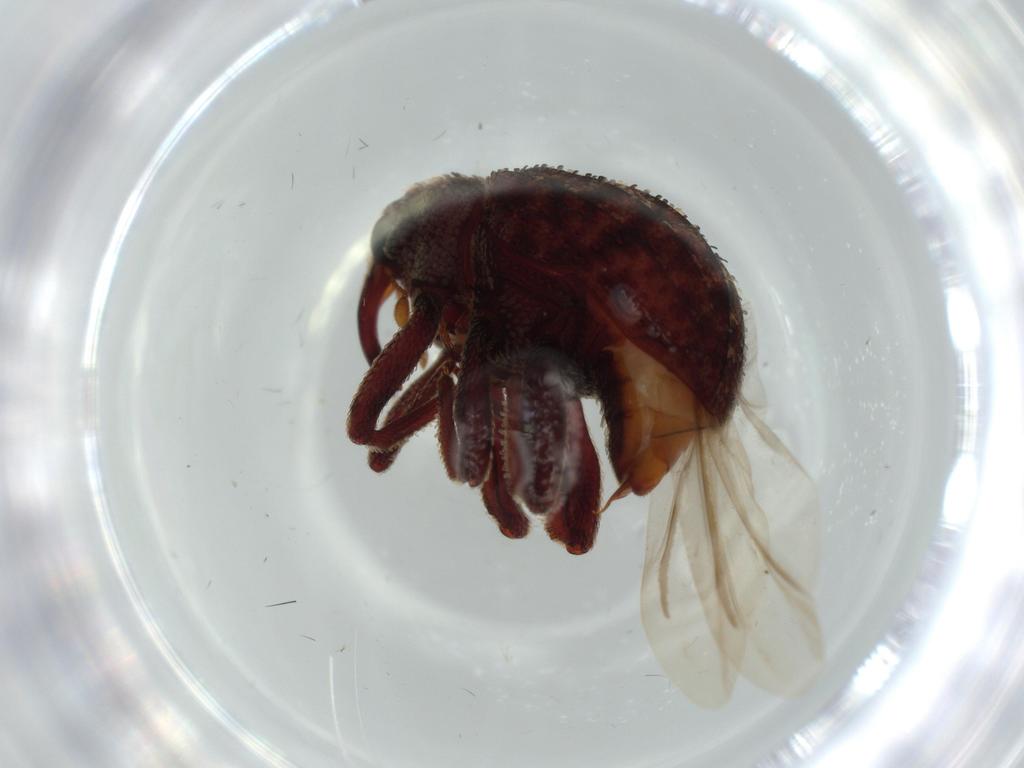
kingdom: Animalia
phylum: Arthropoda
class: Insecta
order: Coleoptera
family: Curculionidae
